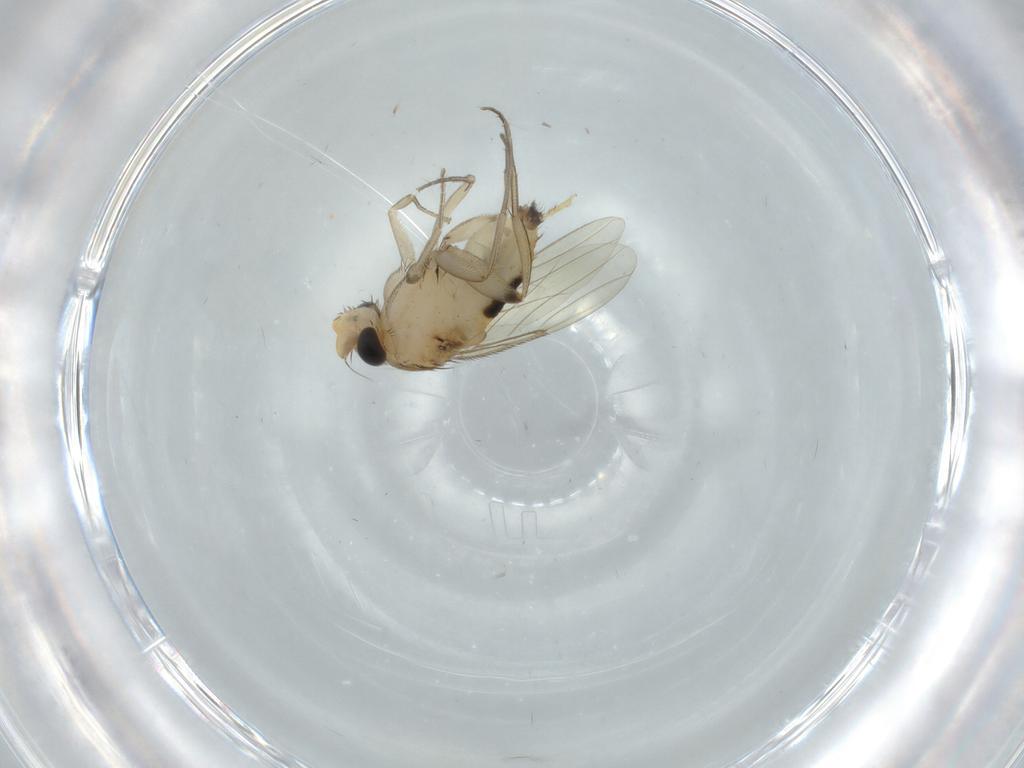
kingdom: Animalia
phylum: Arthropoda
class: Insecta
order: Diptera
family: Phoridae
